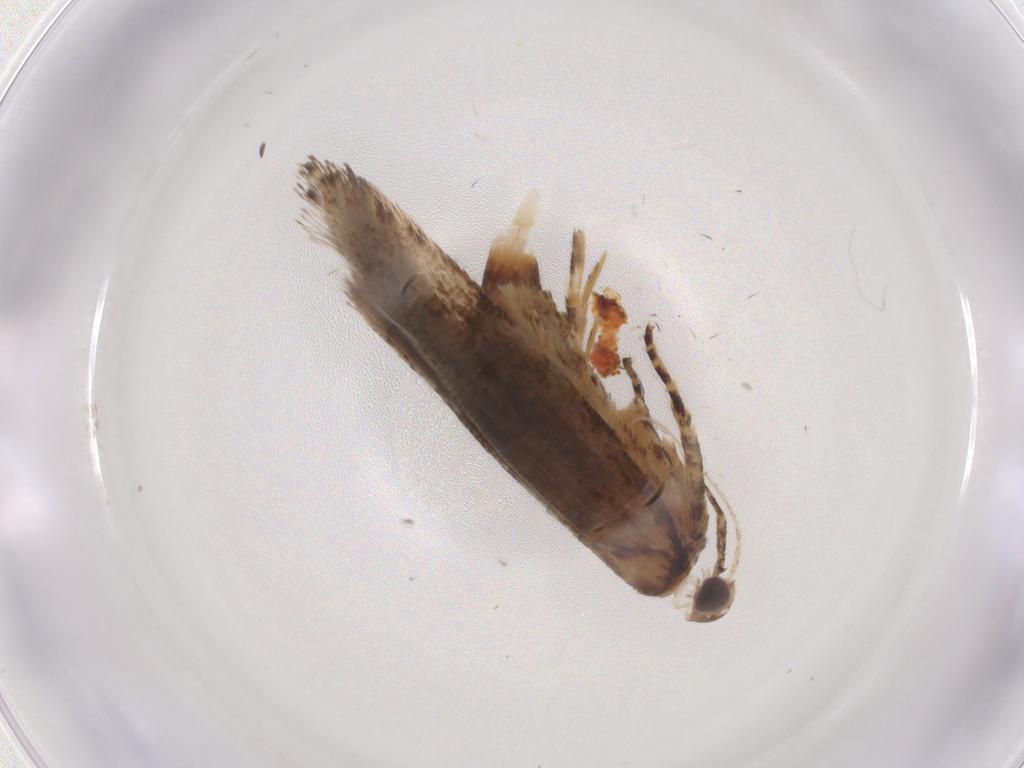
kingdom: Animalia
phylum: Arthropoda
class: Insecta
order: Lepidoptera
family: Gelechiidae
